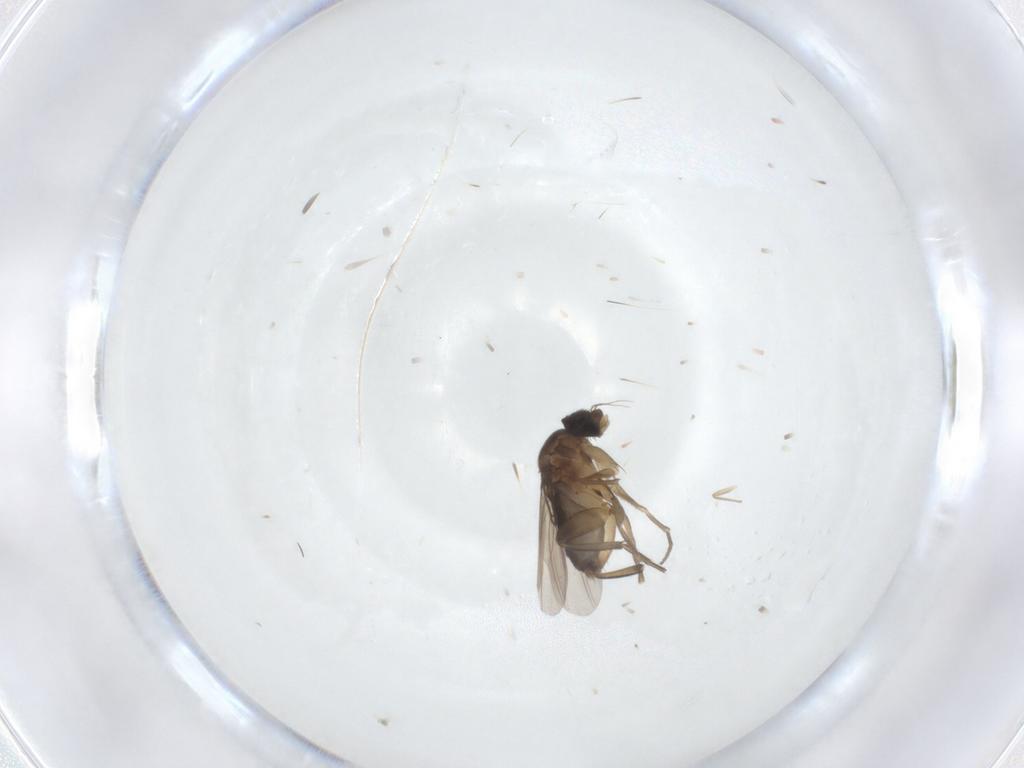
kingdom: Animalia
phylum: Arthropoda
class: Insecta
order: Diptera
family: Phoridae
